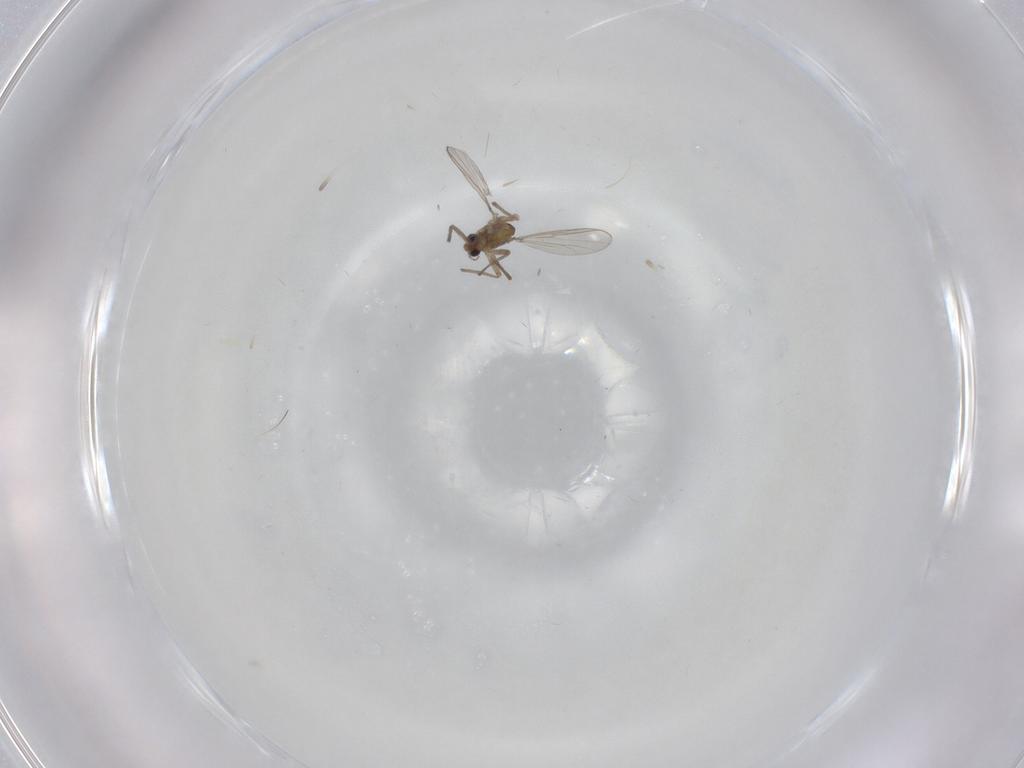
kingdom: Animalia
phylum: Arthropoda
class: Insecta
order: Diptera
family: Chironomidae
